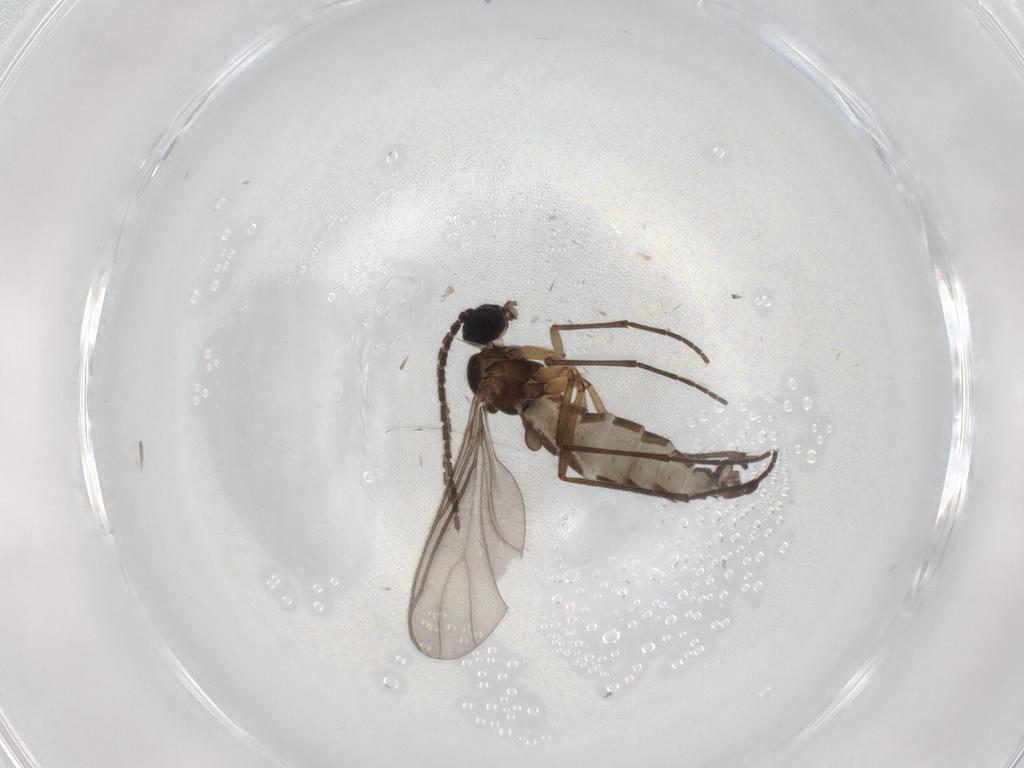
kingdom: Animalia
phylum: Arthropoda
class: Insecta
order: Diptera
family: Sciaridae
